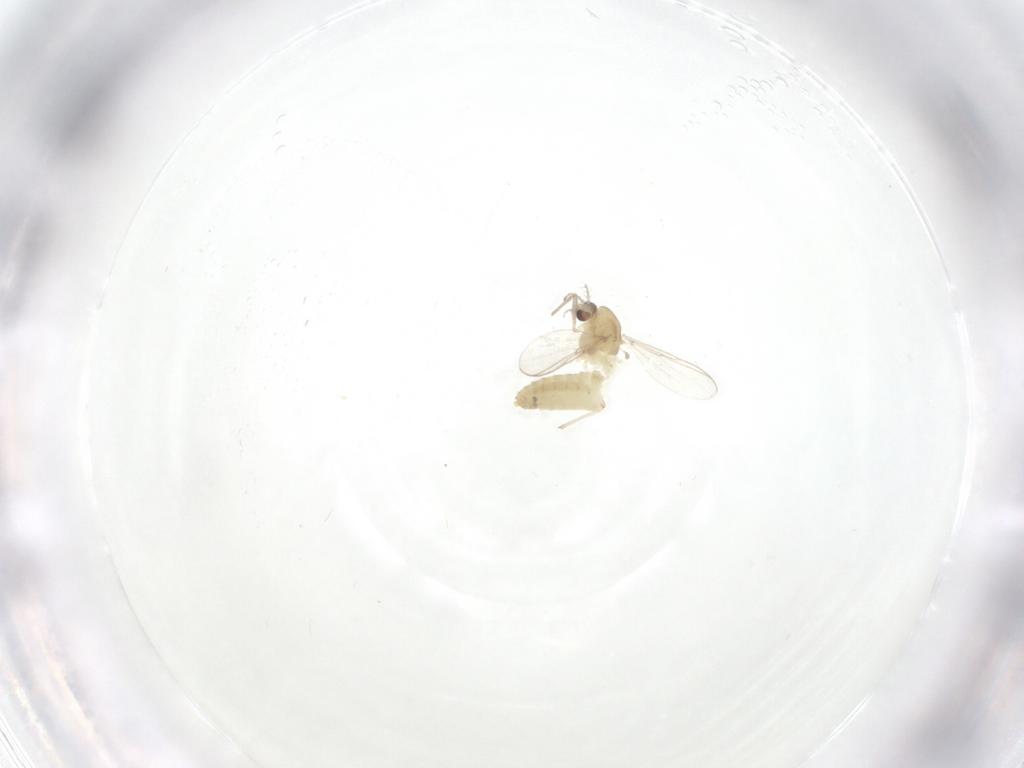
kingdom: Animalia
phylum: Arthropoda
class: Insecta
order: Diptera
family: Chironomidae
